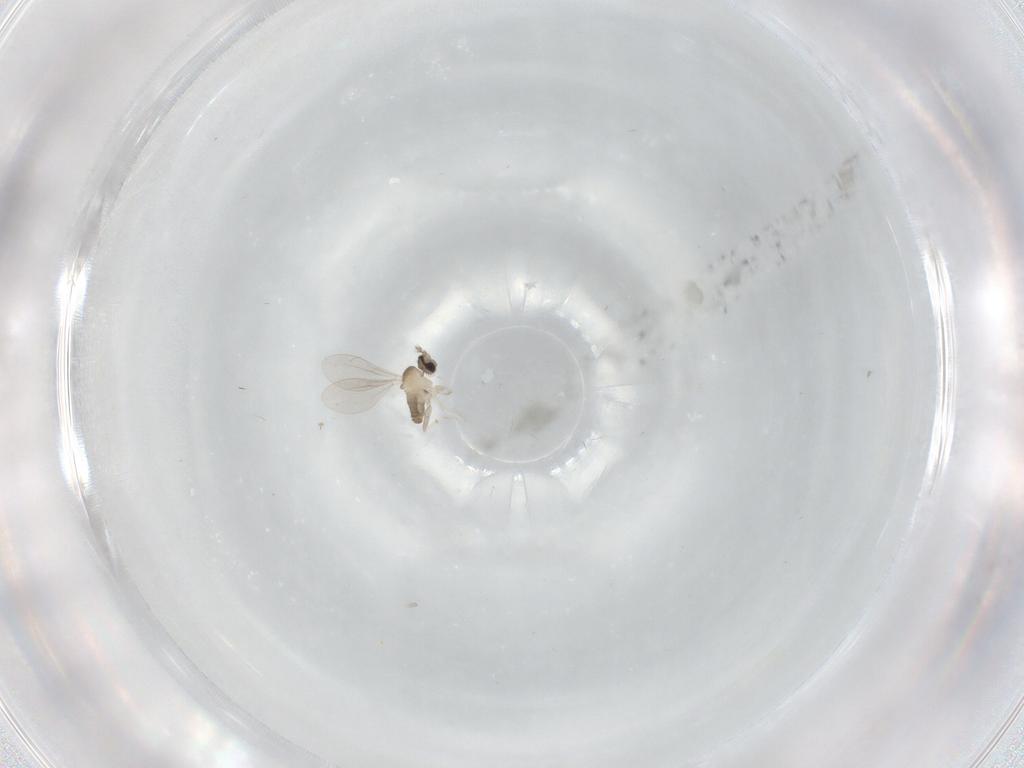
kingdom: Animalia
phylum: Arthropoda
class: Insecta
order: Diptera
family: Cecidomyiidae
